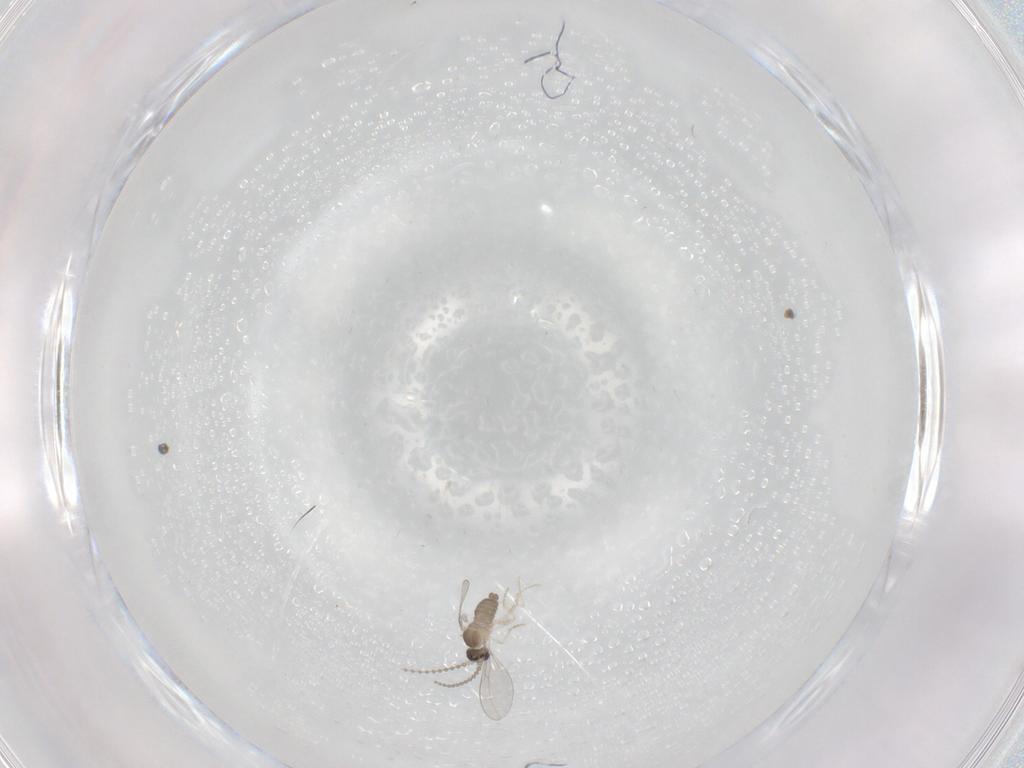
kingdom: Animalia
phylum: Arthropoda
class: Insecta
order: Diptera
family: Cecidomyiidae
